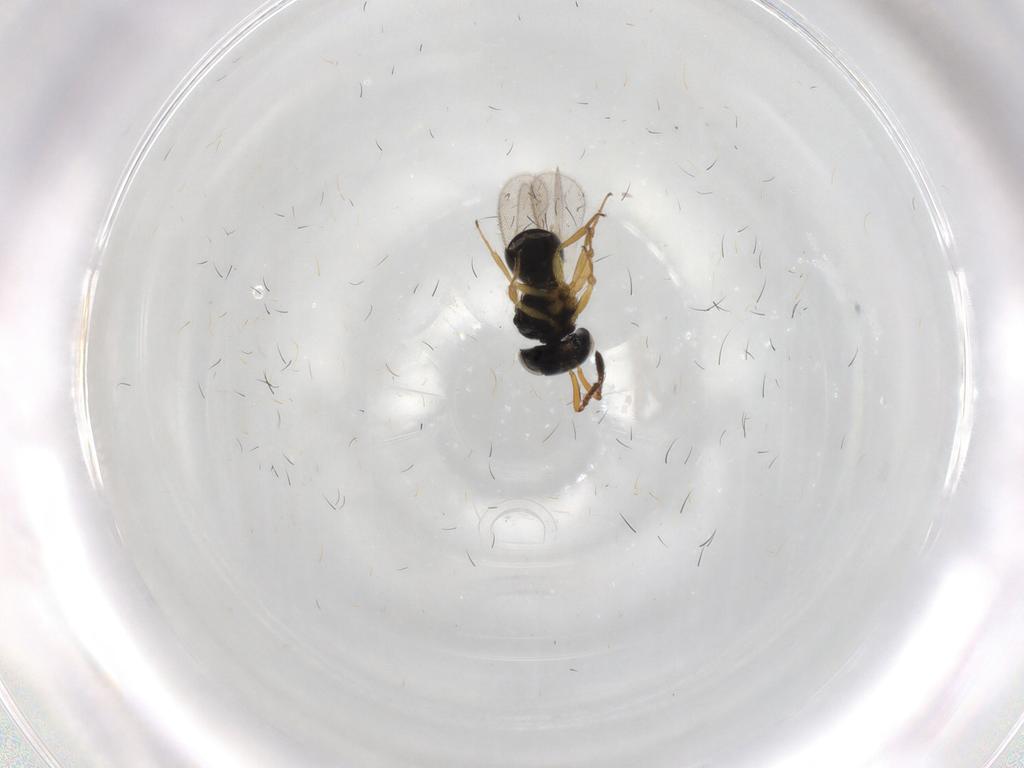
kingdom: Animalia
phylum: Arthropoda
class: Insecta
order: Hymenoptera
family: Scelionidae
